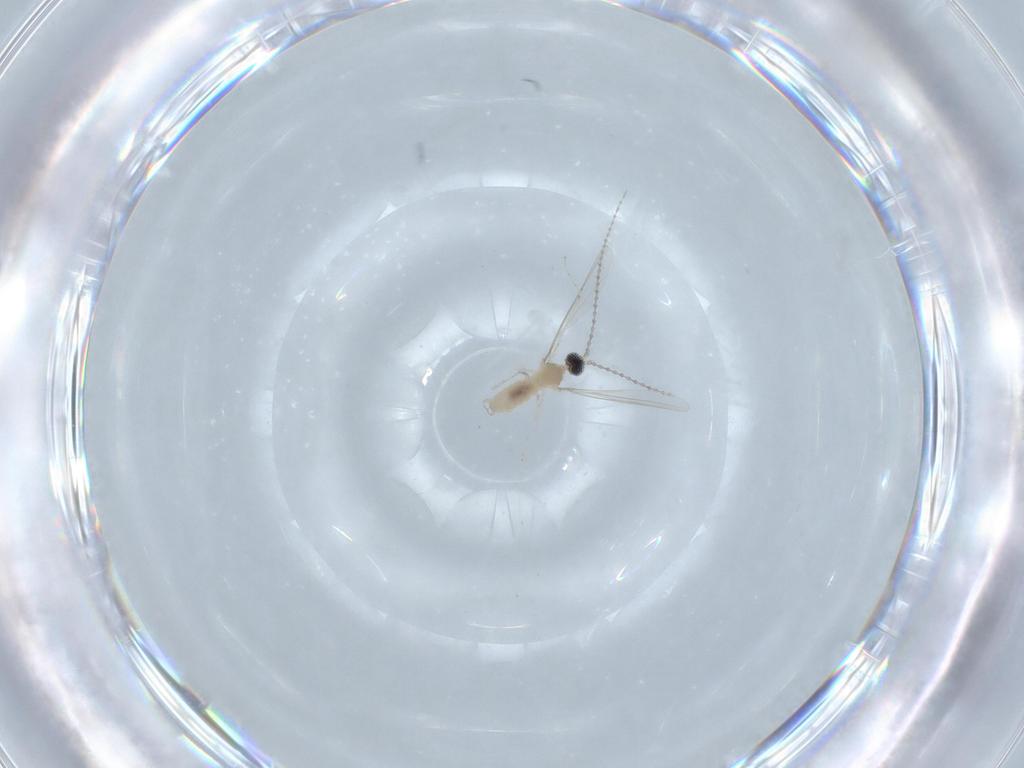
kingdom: Animalia
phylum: Arthropoda
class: Insecta
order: Diptera
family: Cecidomyiidae
